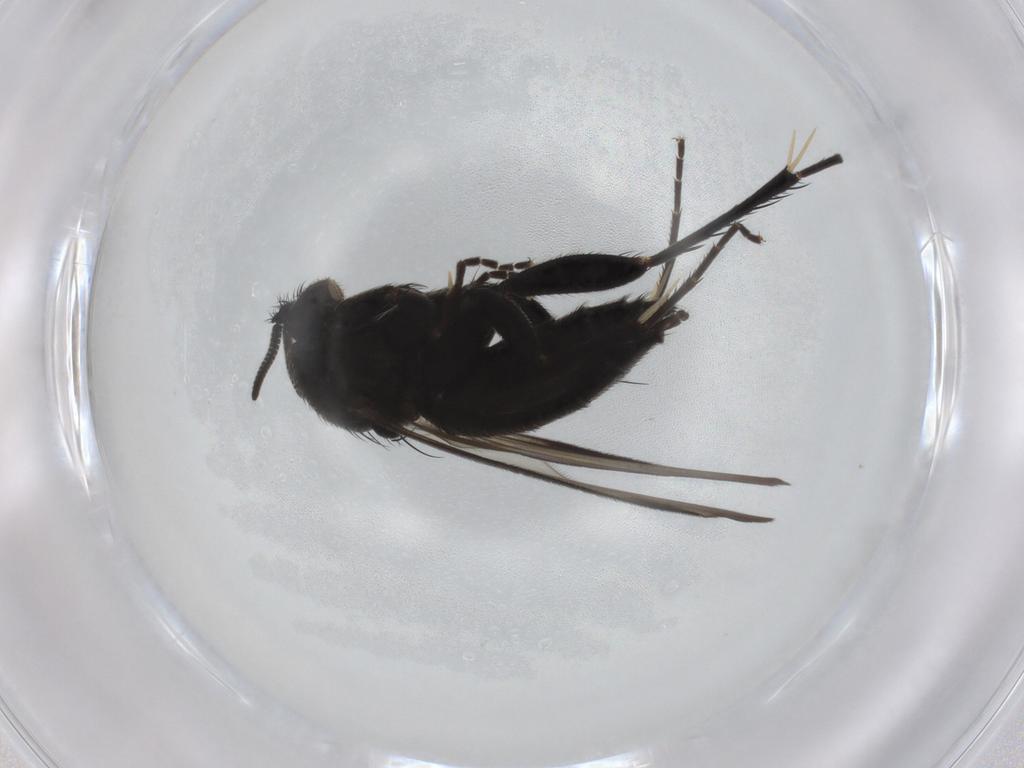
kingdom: Animalia
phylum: Arthropoda
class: Insecta
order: Diptera
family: Mycetophilidae
